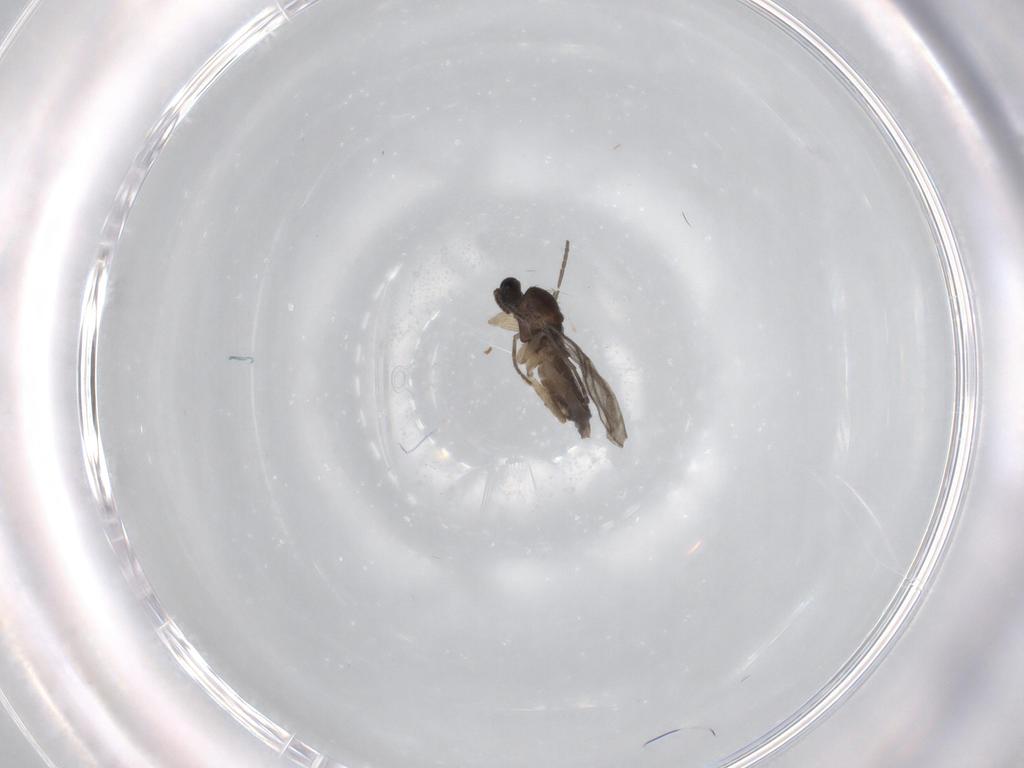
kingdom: Animalia
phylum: Arthropoda
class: Insecta
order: Diptera
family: Sciaridae
